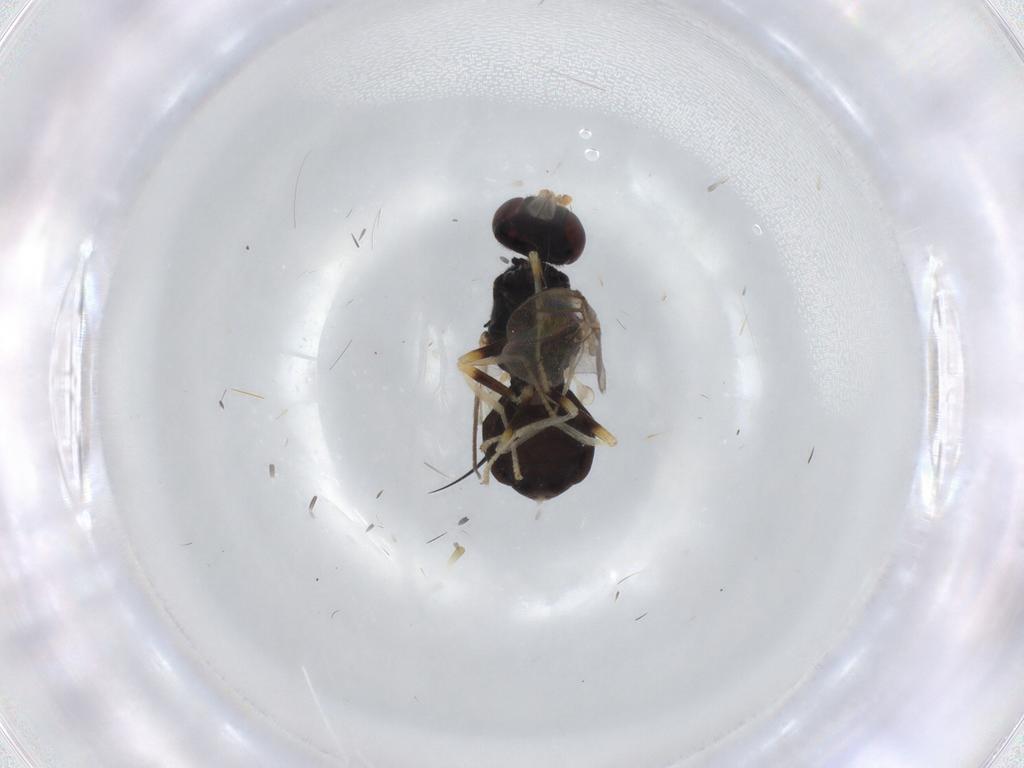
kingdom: Animalia
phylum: Arthropoda
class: Insecta
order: Diptera
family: Stratiomyidae
